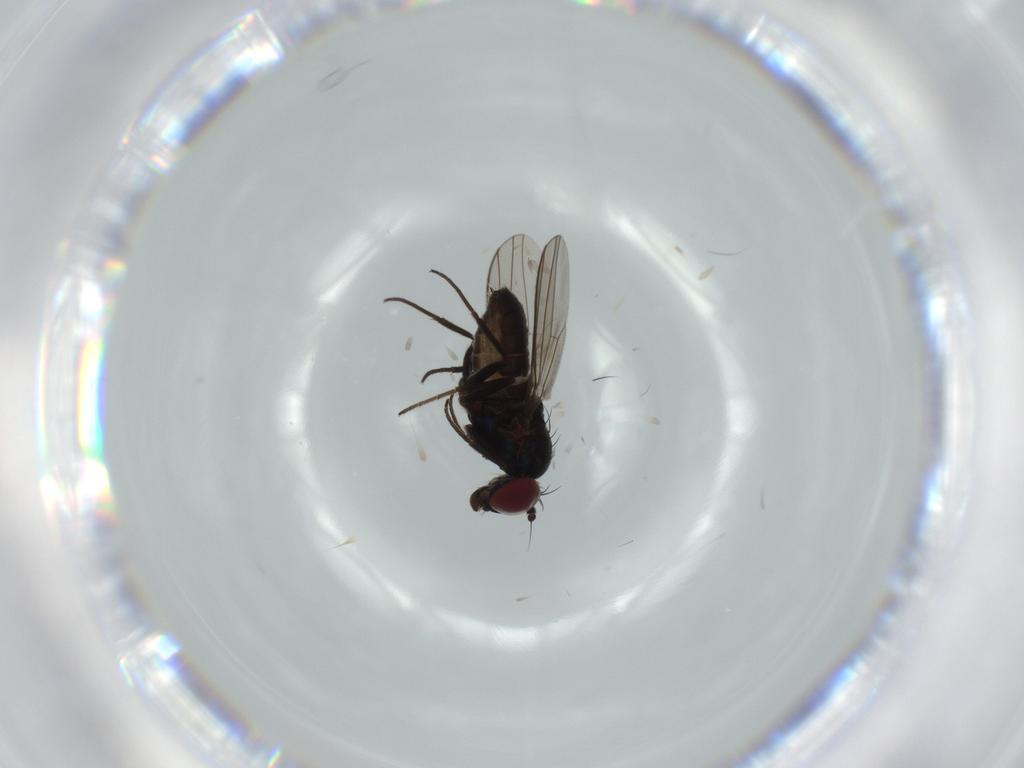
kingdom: Animalia
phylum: Arthropoda
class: Insecta
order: Diptera
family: Dolichopodidae
